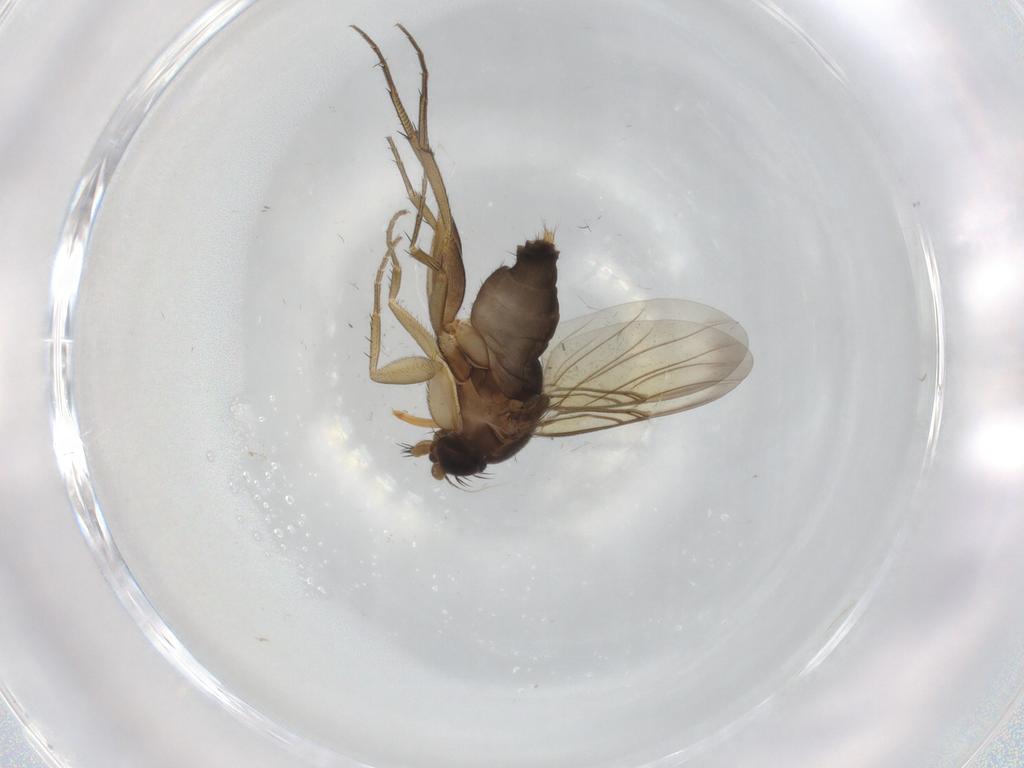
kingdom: Animalia
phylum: Arthropoda
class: Insecta
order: Diptera
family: Phoridae
